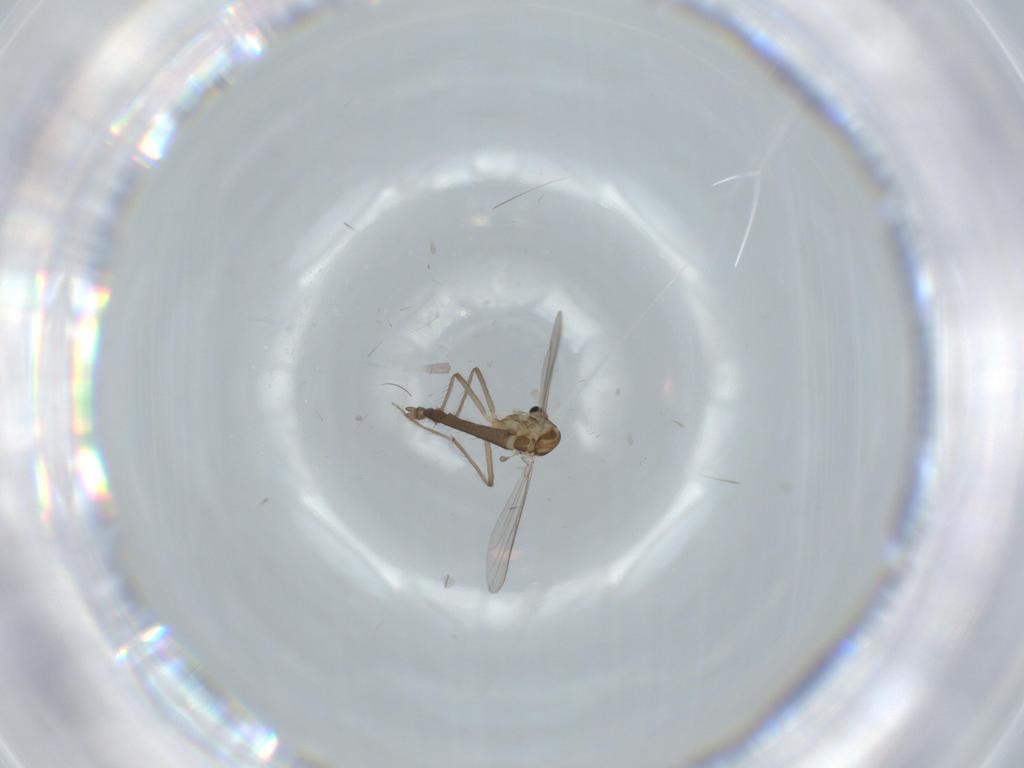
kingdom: Animalia
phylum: Arthropoda
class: Insecta
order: Diptera
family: Chironomidae
